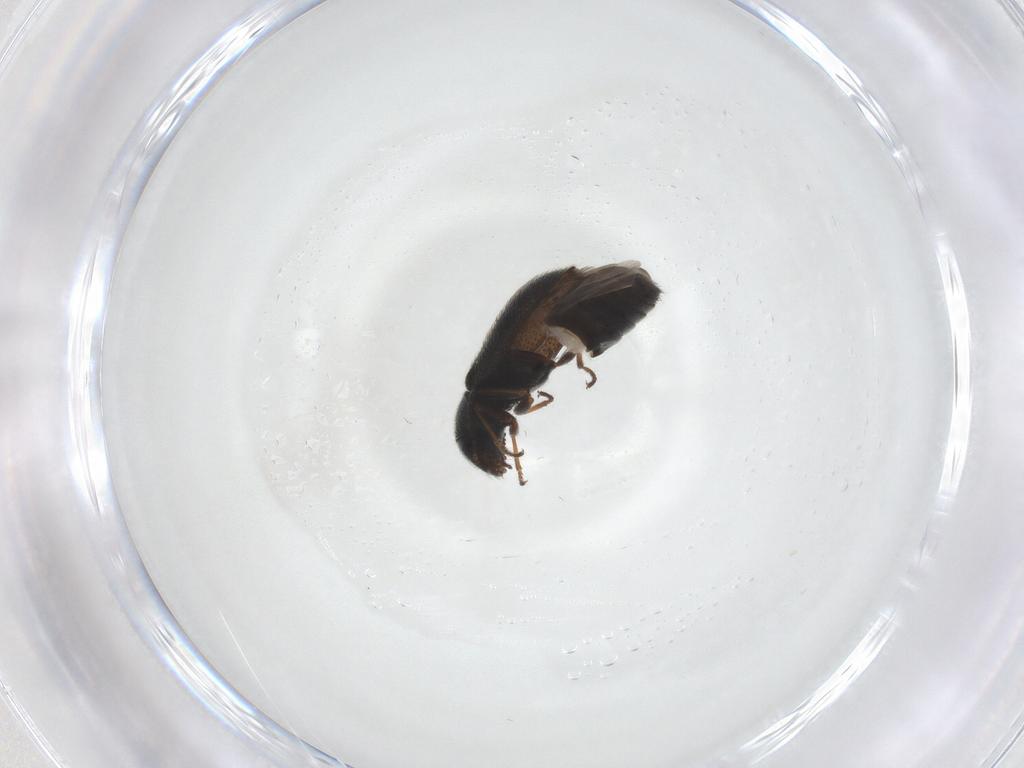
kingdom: Animalia
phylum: Arthropoda
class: Insecta
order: Coleoptera
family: Melyridae
